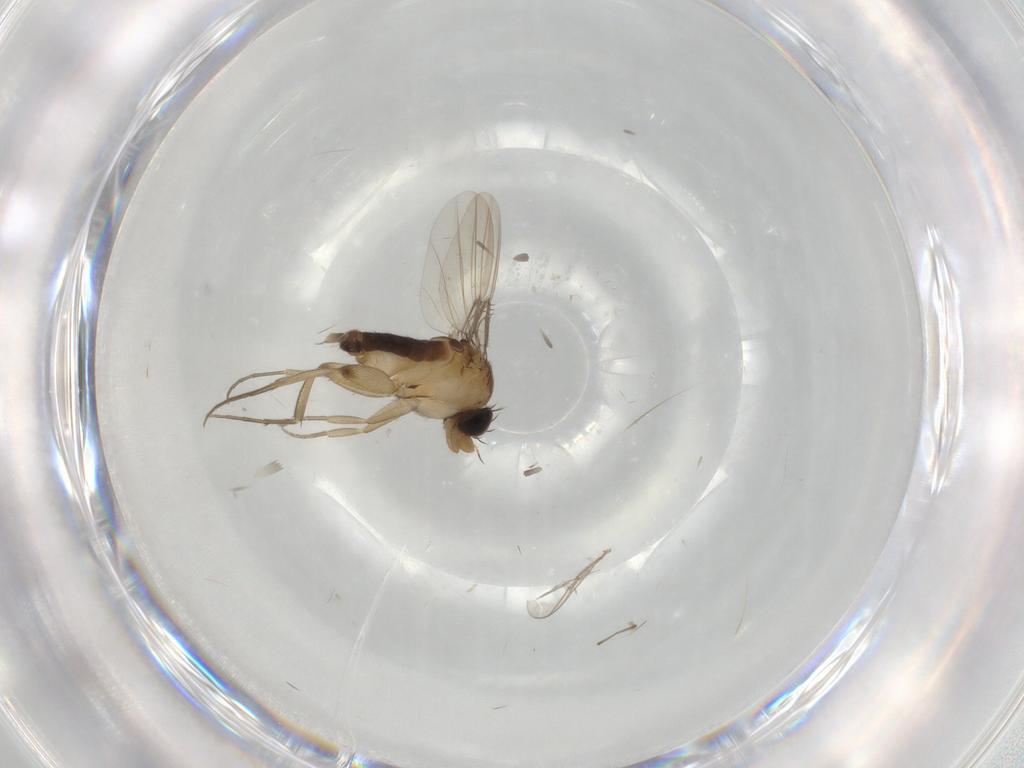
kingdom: Animalia
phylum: Arthropoda
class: Insecta
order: Diptera
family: Phoridae
